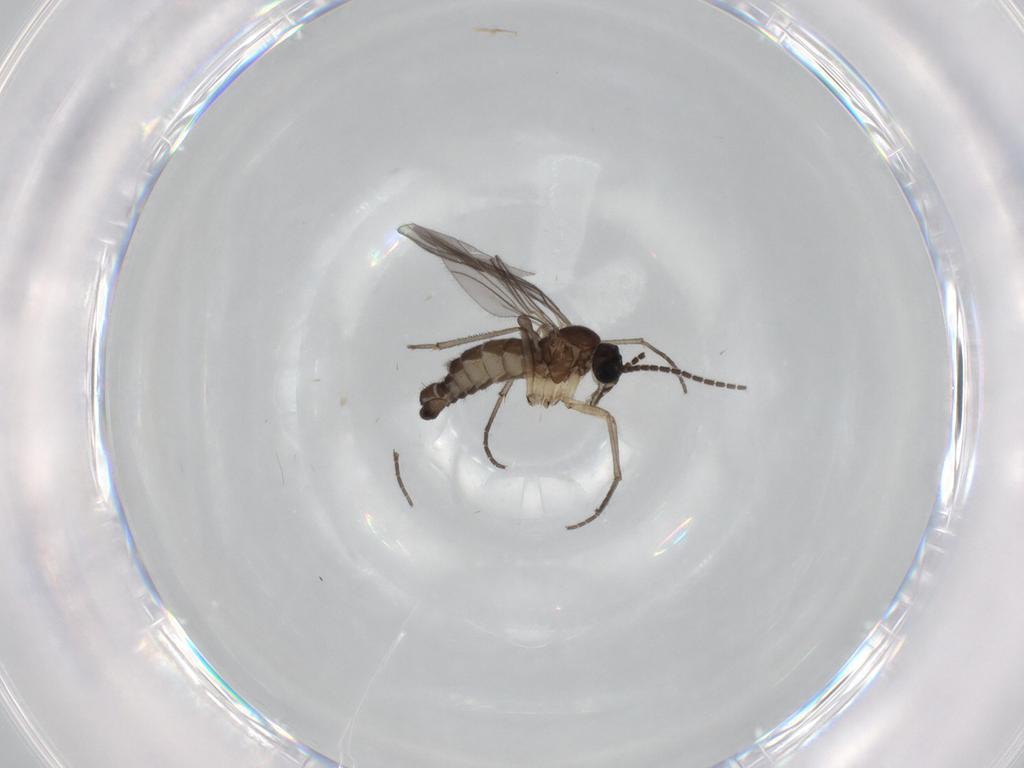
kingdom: Animalia
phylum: Arthropoda
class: Insecta
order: Diptera
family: Sciaridae
